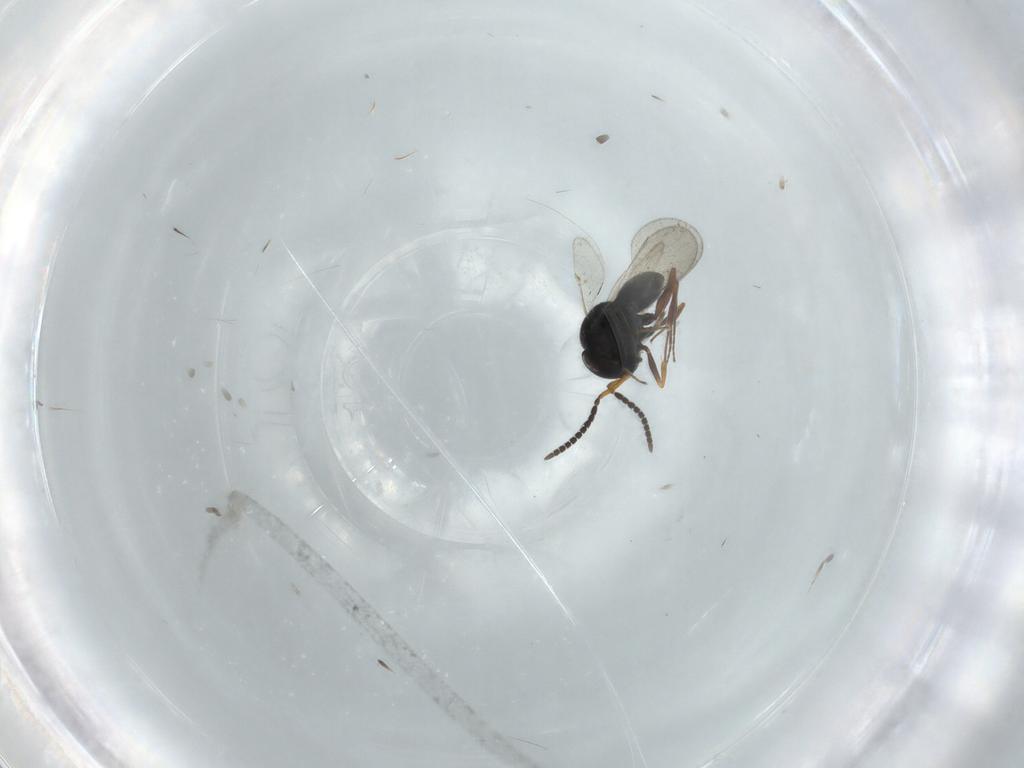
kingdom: Animalia
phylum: Arthropoda
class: Insecta
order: Hymenoptera
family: Scelionidae
